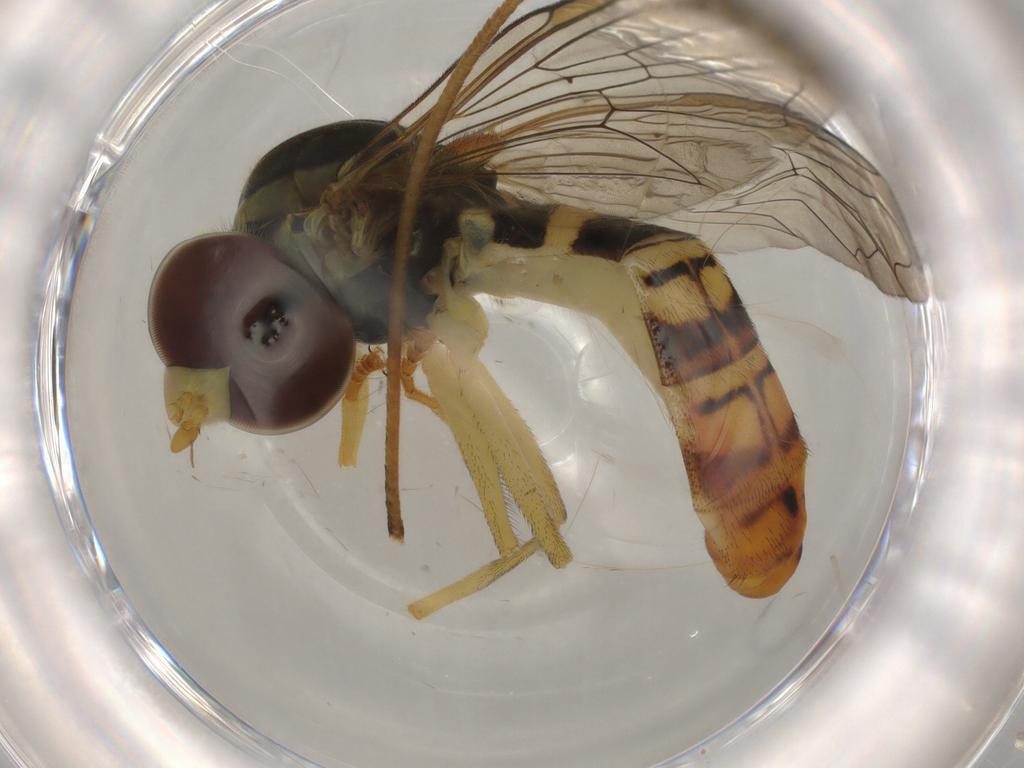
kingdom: Animalia
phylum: Arthropoda
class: Insecta
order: Diptera
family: Syrphidae
